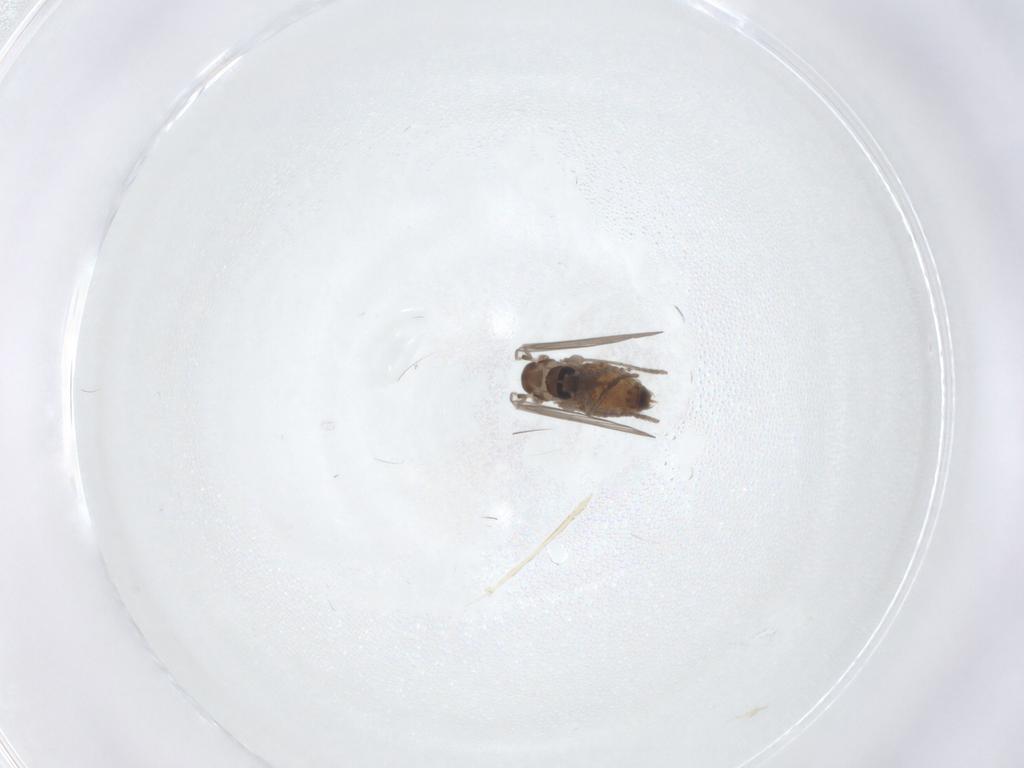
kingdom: Animalia
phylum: Arthropoda
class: Insecta
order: Diptera
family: Psychodidae
